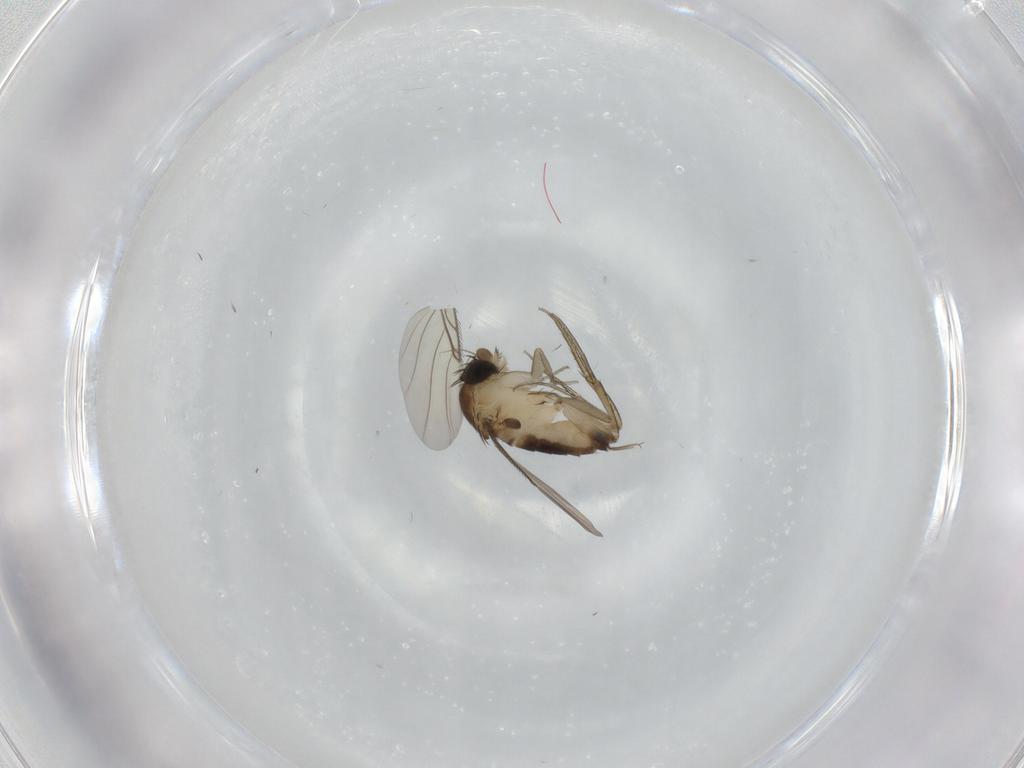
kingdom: Animalia
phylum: Arthropoda
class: Insecta
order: Diptera
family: Phoridae
